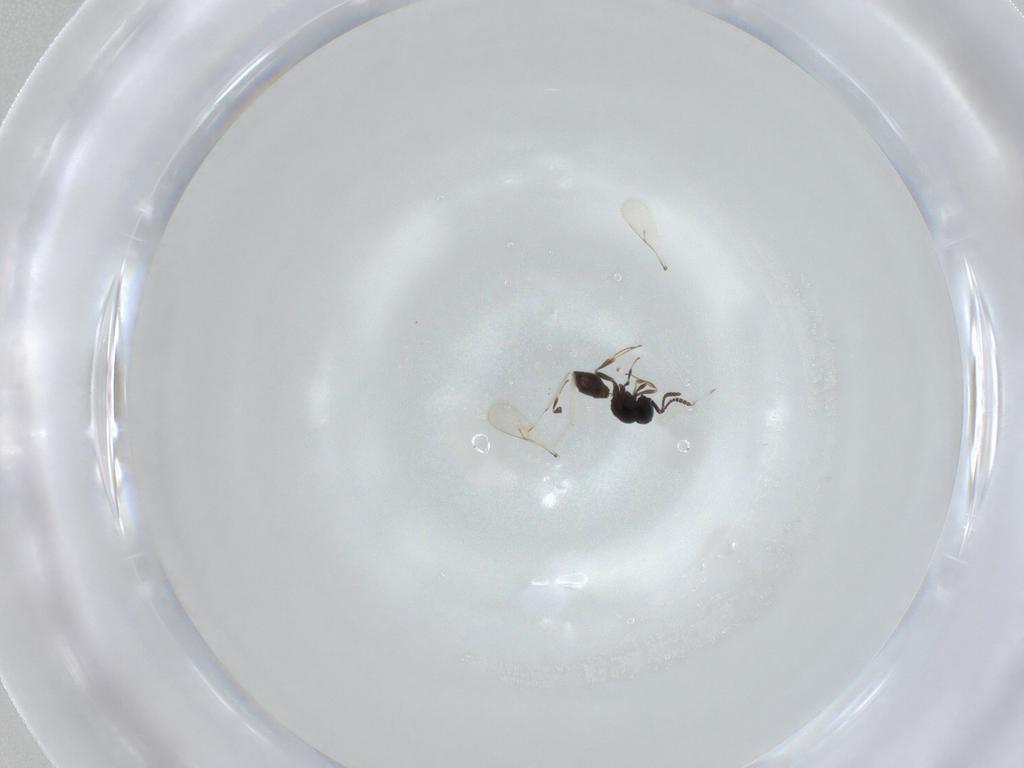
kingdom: Animalia
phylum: Arthropoda
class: Insecta
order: Hymenoptera
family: Scelionidae
